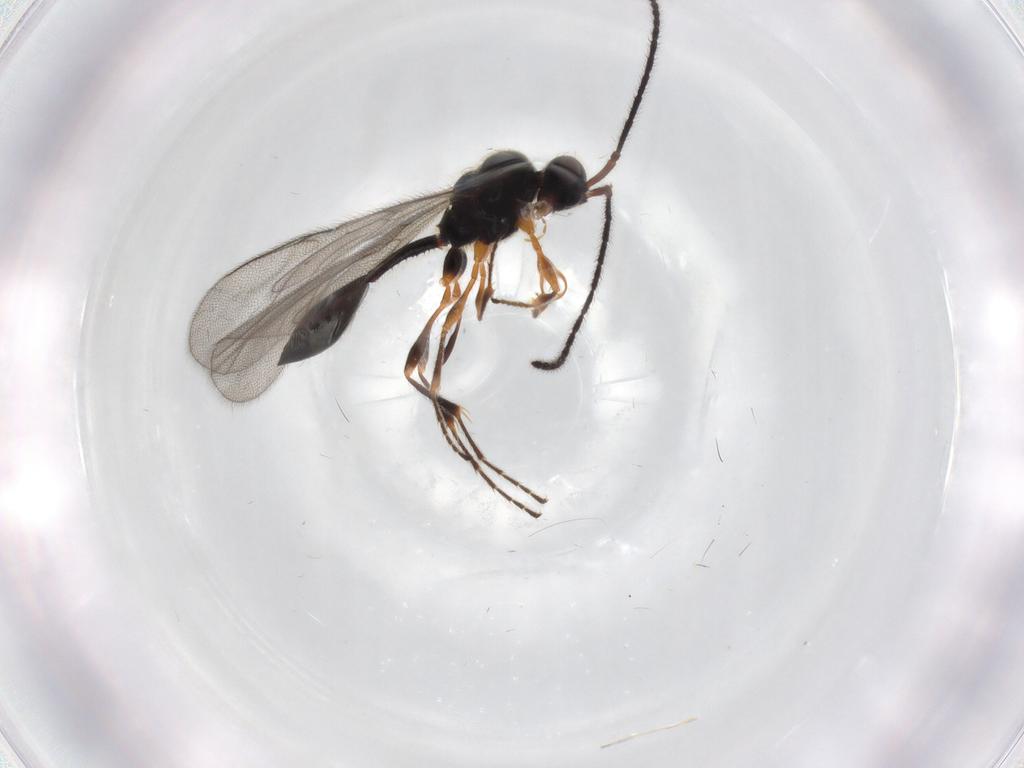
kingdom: Animalia
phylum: Arthropoda
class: Insecta
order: Hymenoptera
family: Diapriidae
